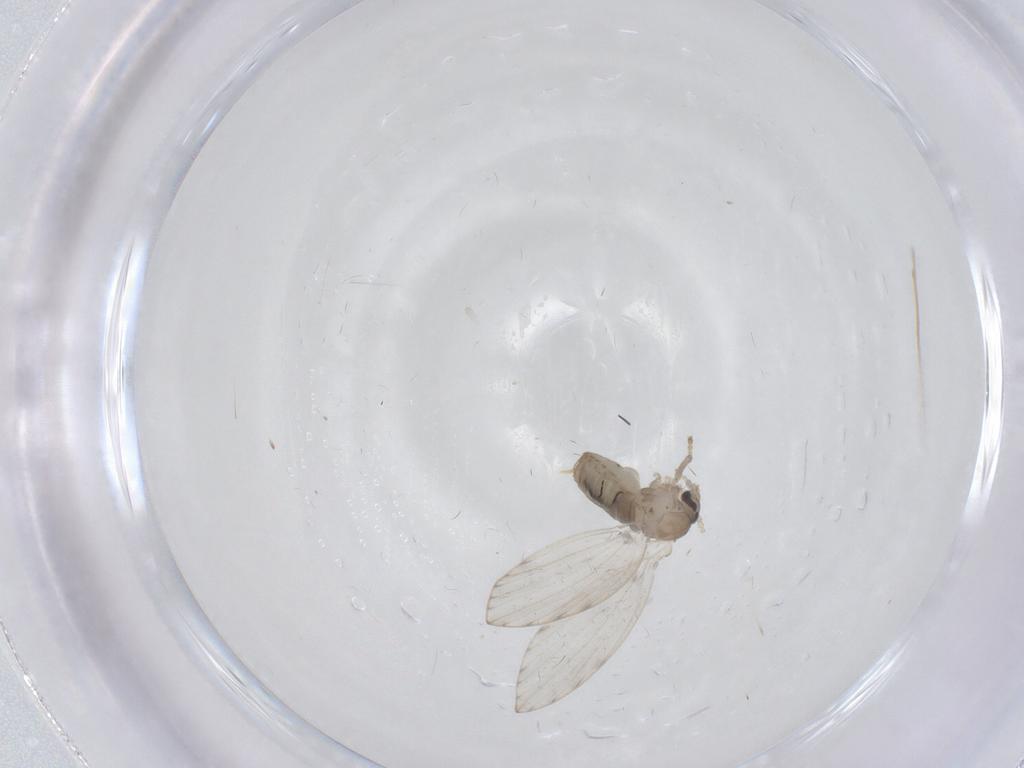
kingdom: Animalia
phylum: Arthropoda
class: Insecta
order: Diptera
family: Psychodidae
